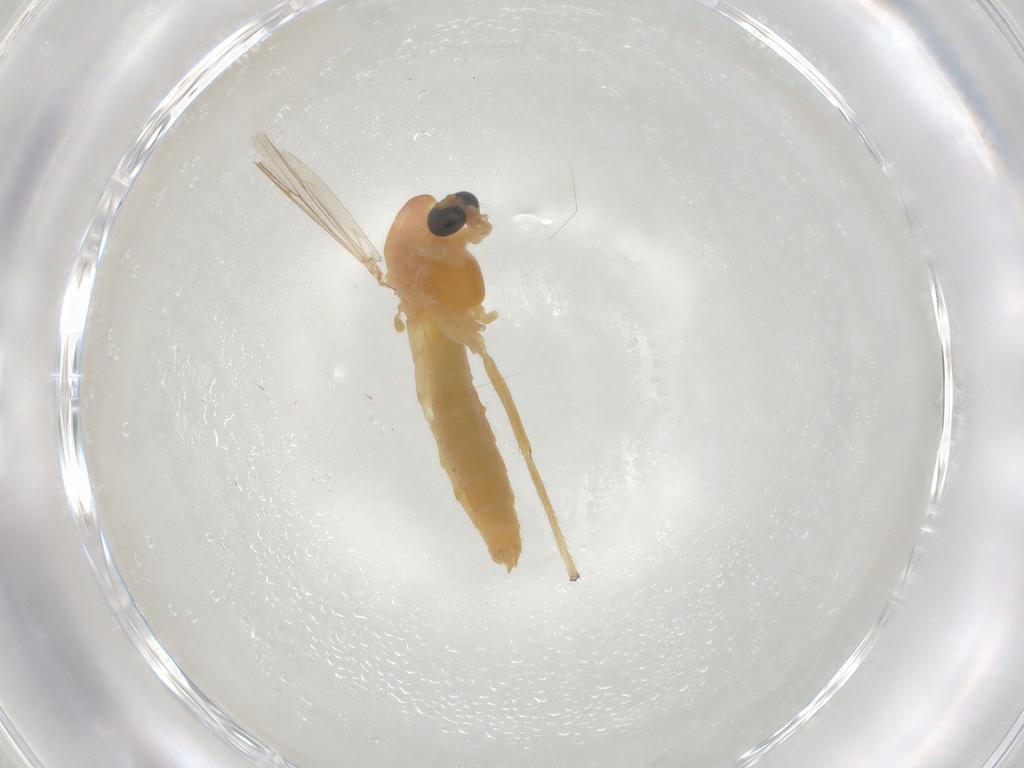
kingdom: Animalia
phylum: Arthropoda
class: Insecta
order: Diptera
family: Chironomidae
